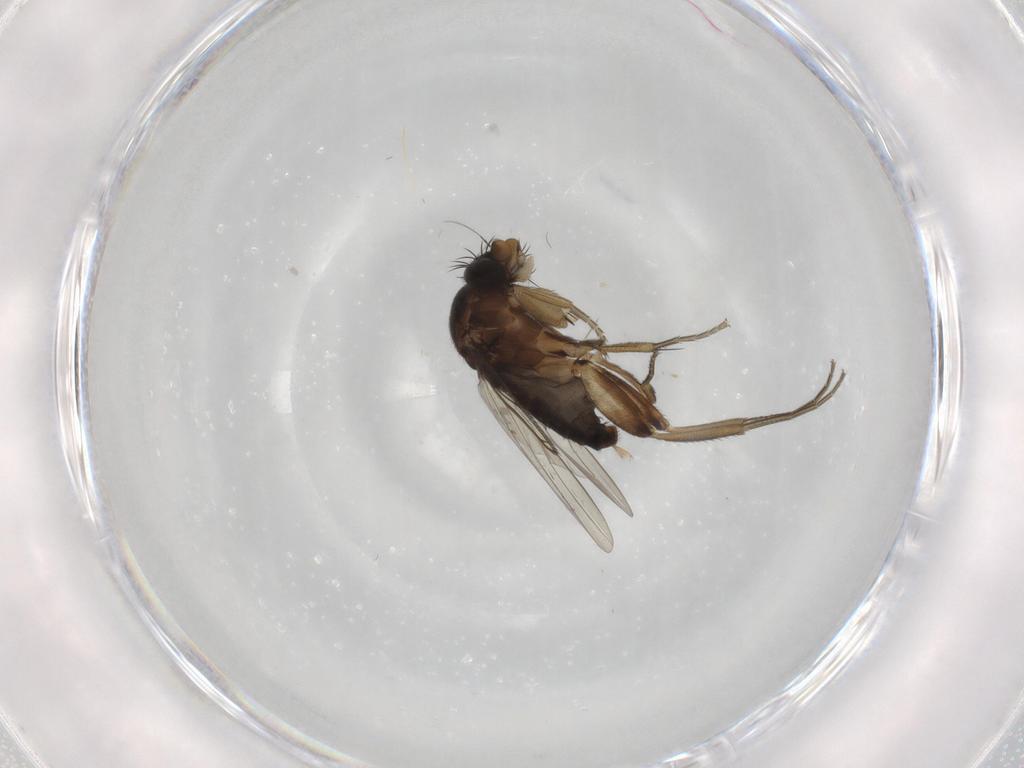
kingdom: Animalia
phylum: Arthropoda
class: Insecta
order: Diptera
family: Phoridae
